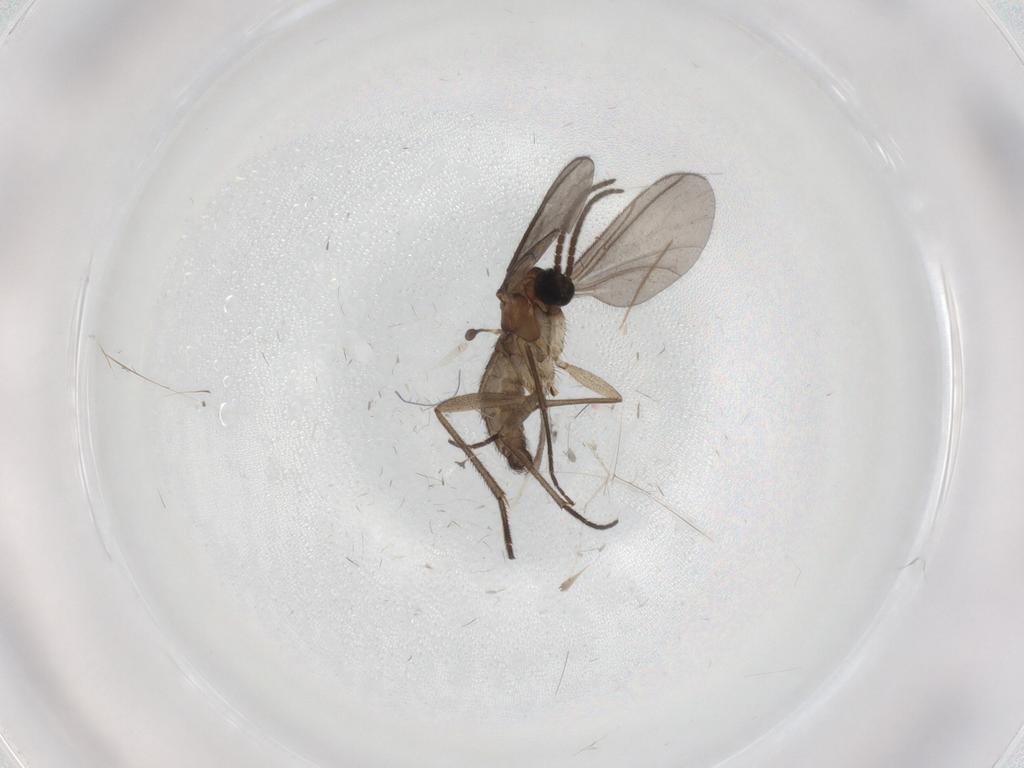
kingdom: Animalia
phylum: Arthropoda
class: Insecta
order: Diptera
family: Sciaridae
